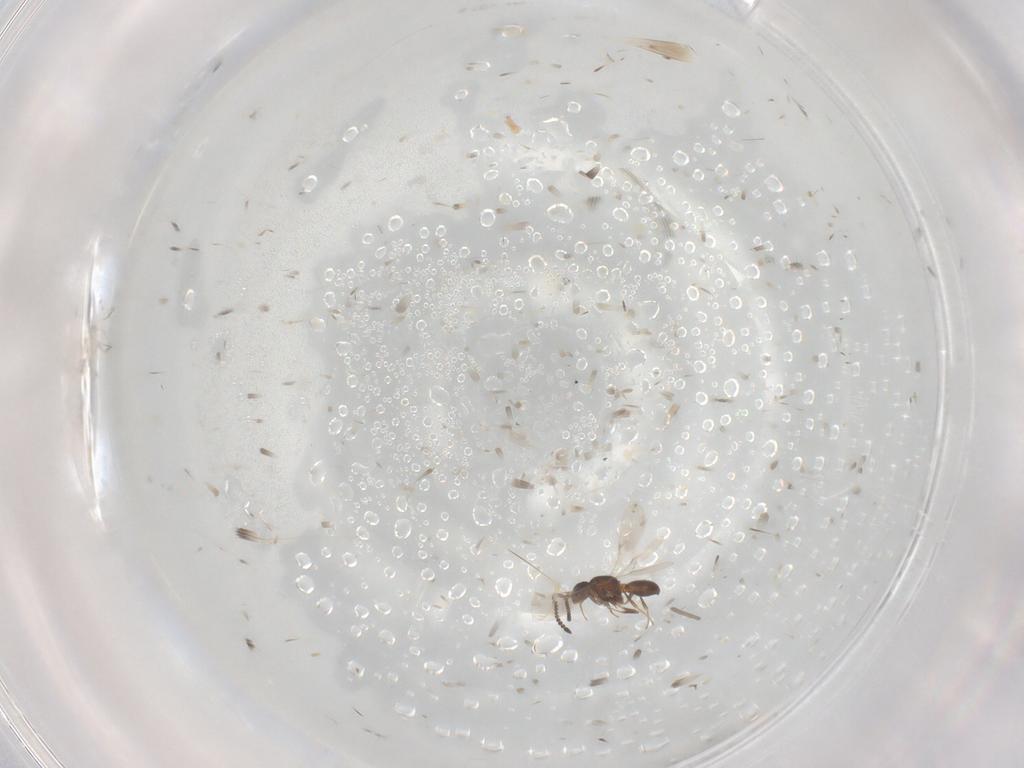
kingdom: Animalia
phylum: Arthropoda
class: Insecta
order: Hymenoptera
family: Scelionidae
